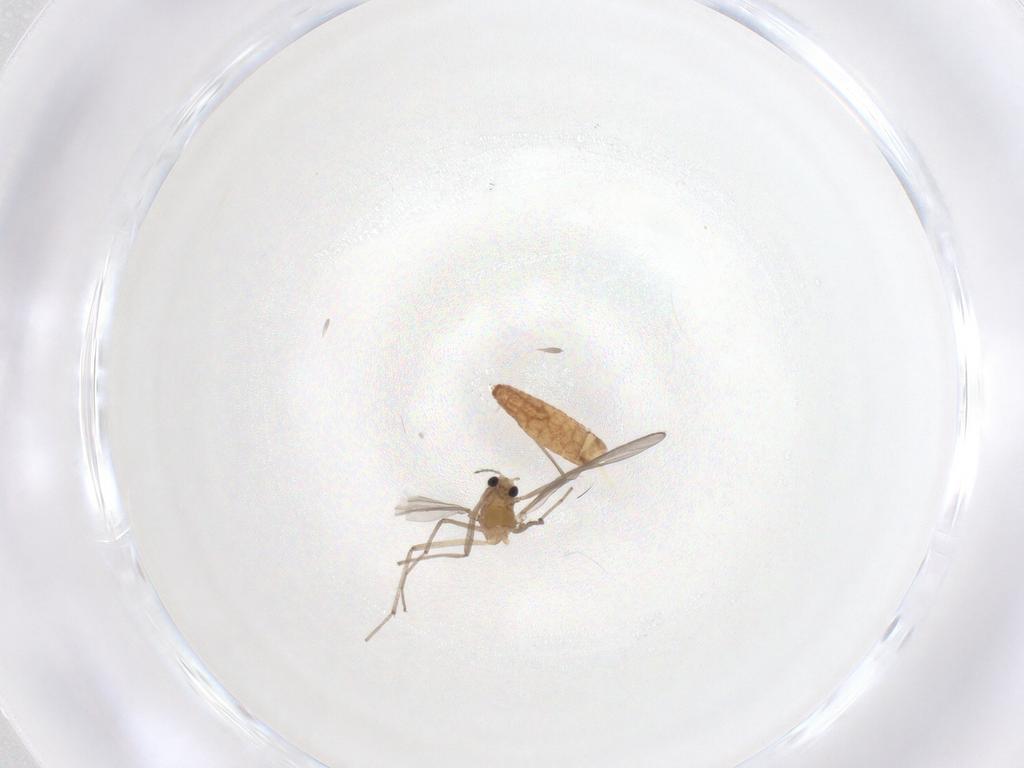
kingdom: Animalia
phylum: Arthropoda
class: Insecta
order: Diptera
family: Chironomidae
